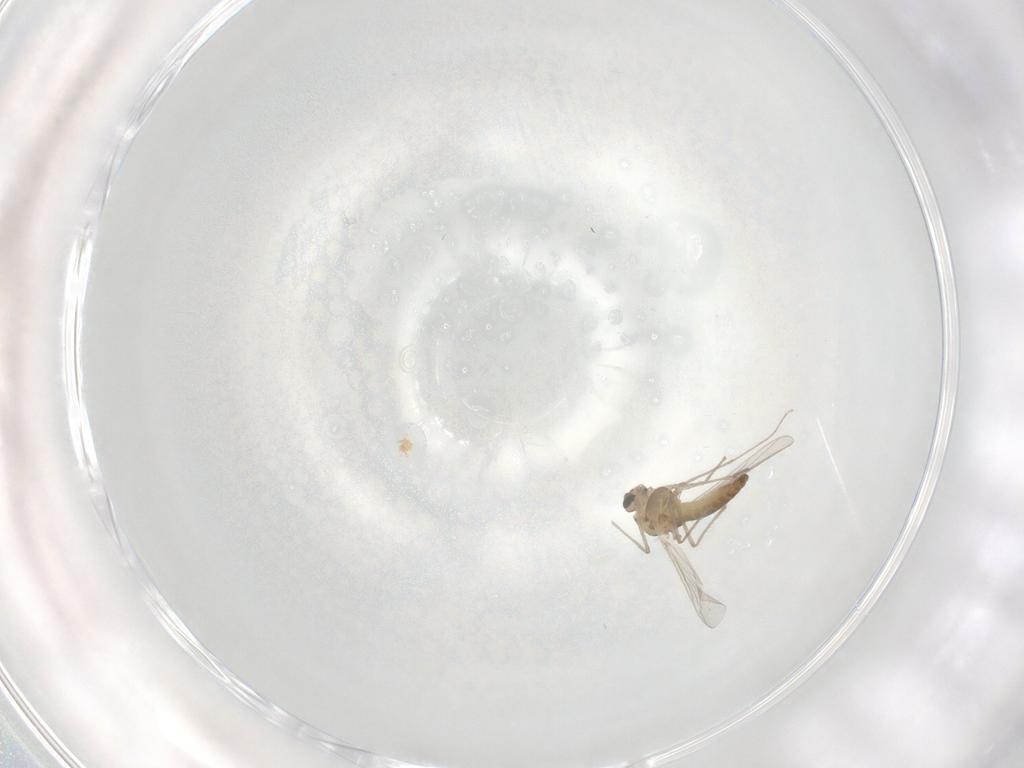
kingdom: Animalia
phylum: Arthropoda
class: Insecta
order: Diptera
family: Chironomidae
